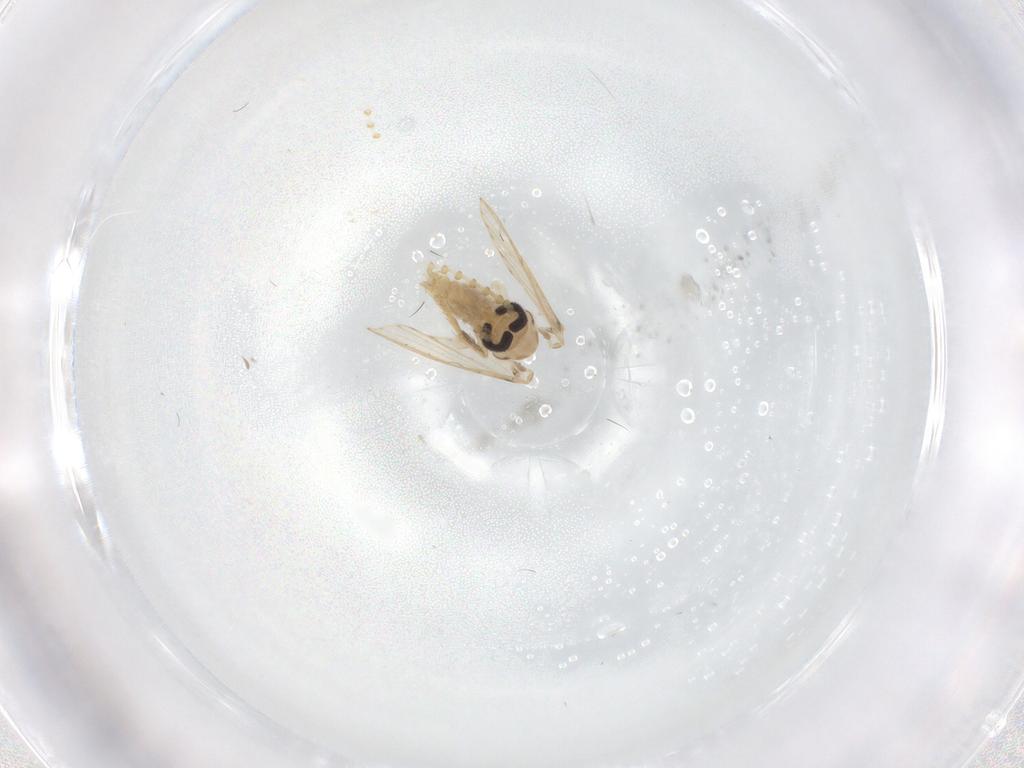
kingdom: Animalia
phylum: Arthropoda
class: Insecta
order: Diptera
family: Psychodidae
